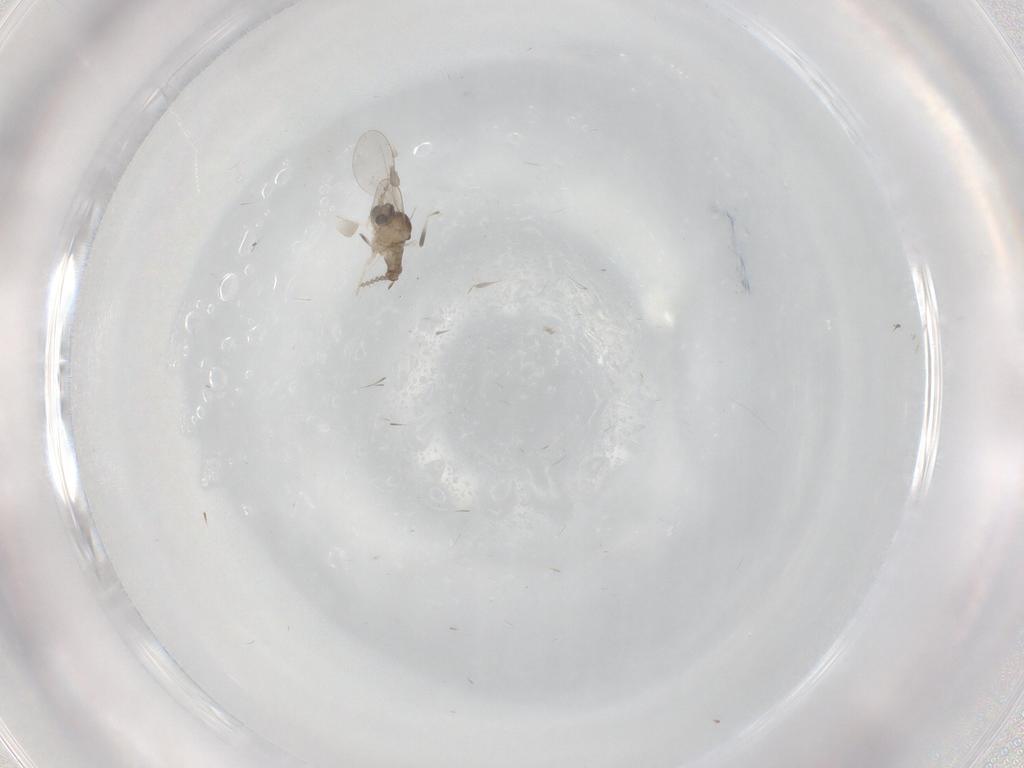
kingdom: Animalia
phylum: Arthropoda
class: Insecta
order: Diptera
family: Cecidomyiidae
